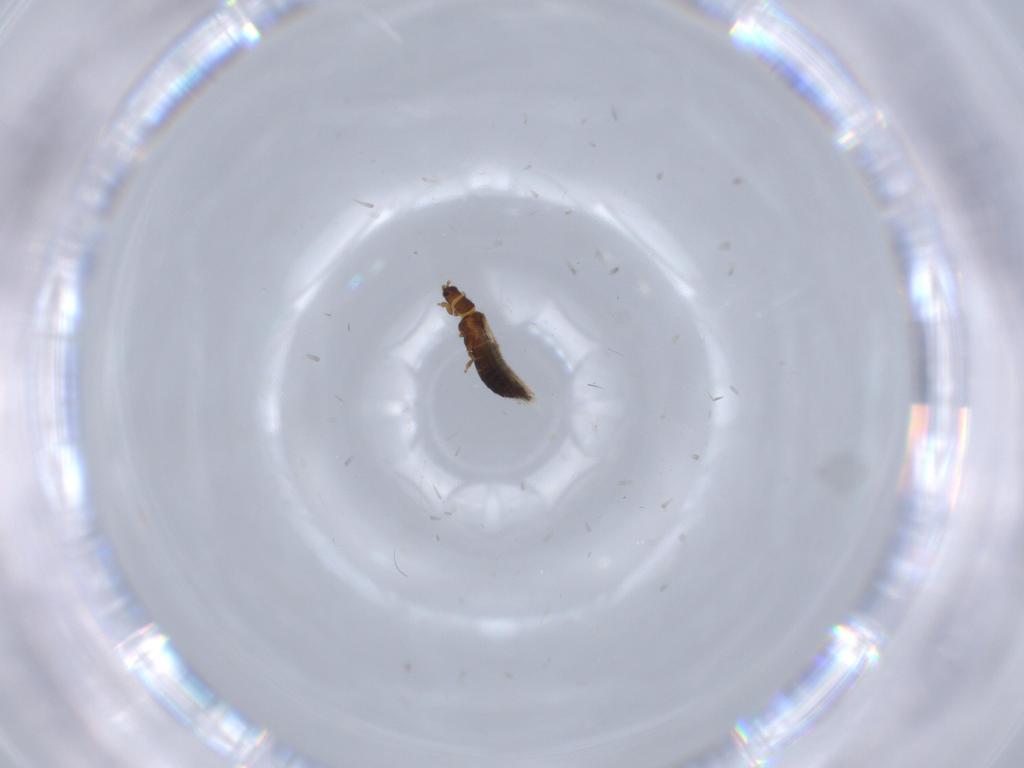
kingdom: Animalia
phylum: Arthropoda
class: Insecta
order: Thysanoptera
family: Thripidae
